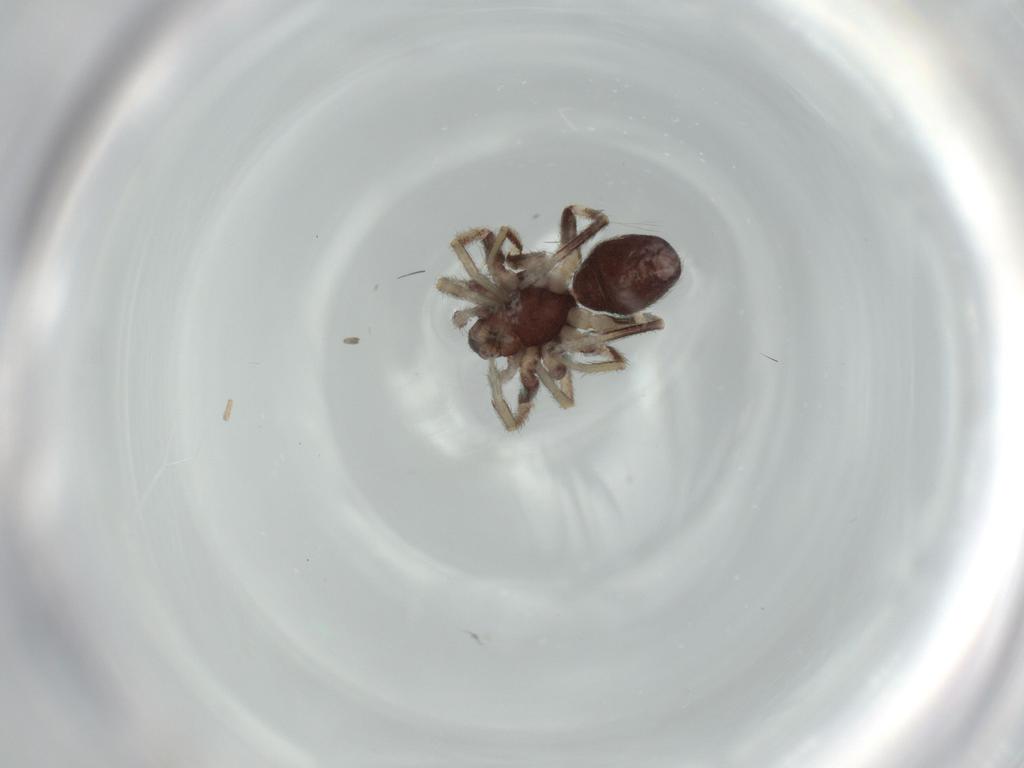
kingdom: Animalia
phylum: Arthropoda
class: Arachnida
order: Araneae
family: Corinnidae
